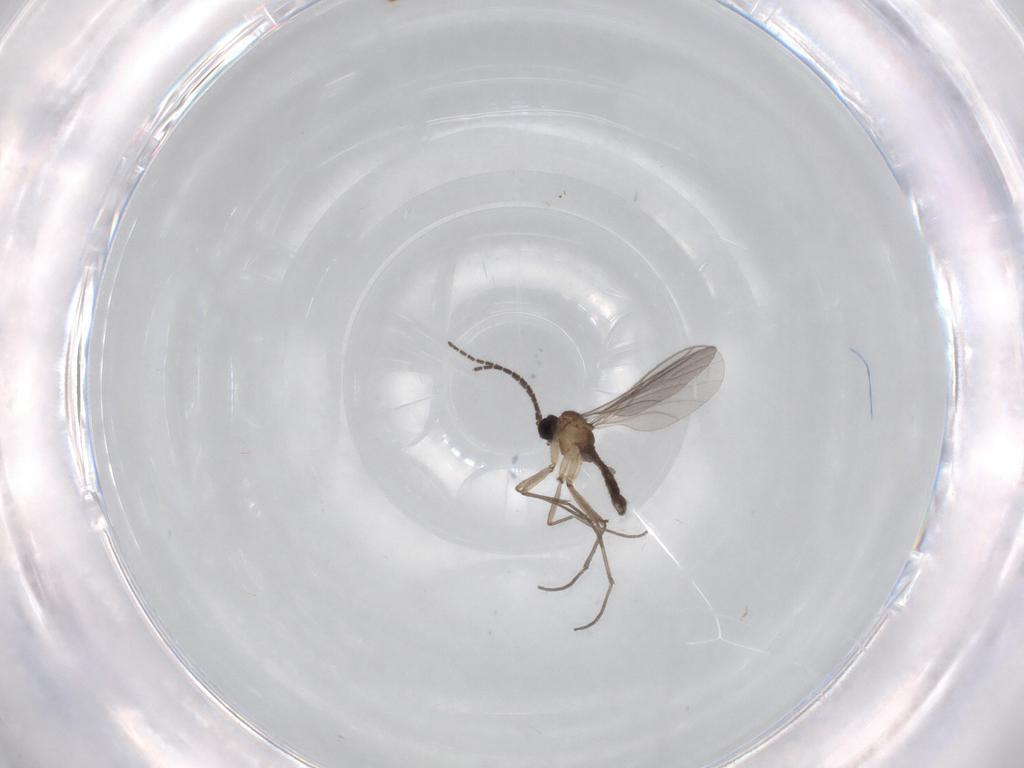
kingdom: Animalia
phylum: Arthropoda
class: Insecta
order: Diptera
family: Sciaridae
